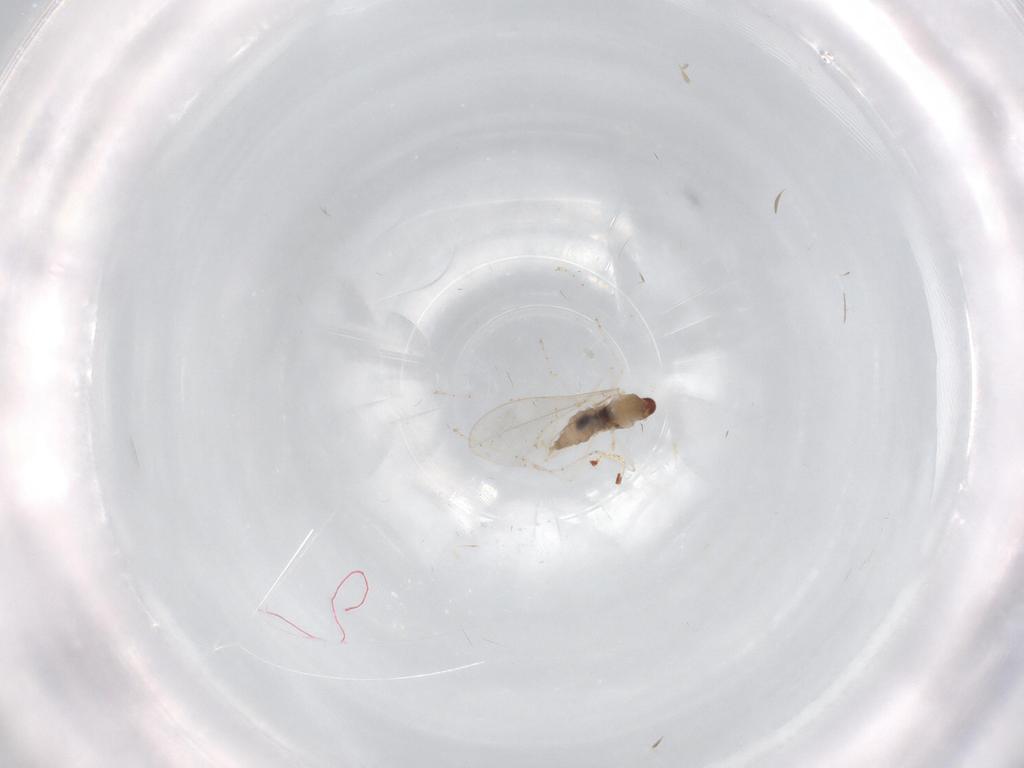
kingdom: Animalia
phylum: Arthropoda
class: Insecta
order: Diptera
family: Cecidomyiidae
